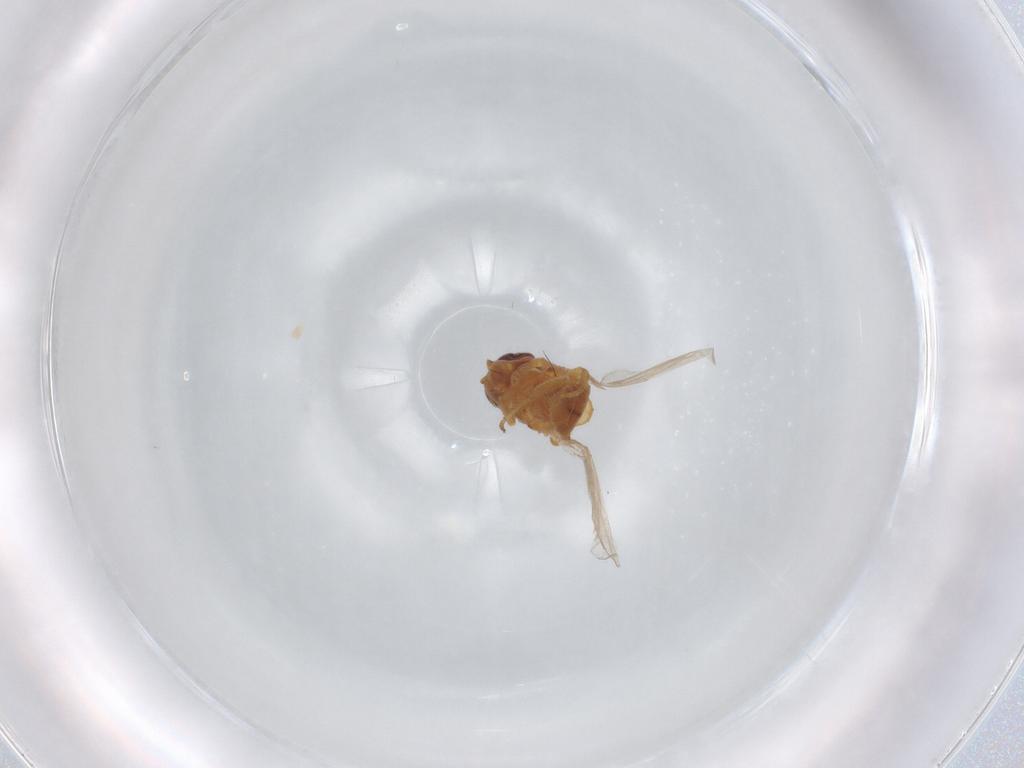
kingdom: Animalia
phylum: Arthropoda
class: Insecta
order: Diptera
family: Chloropidae
